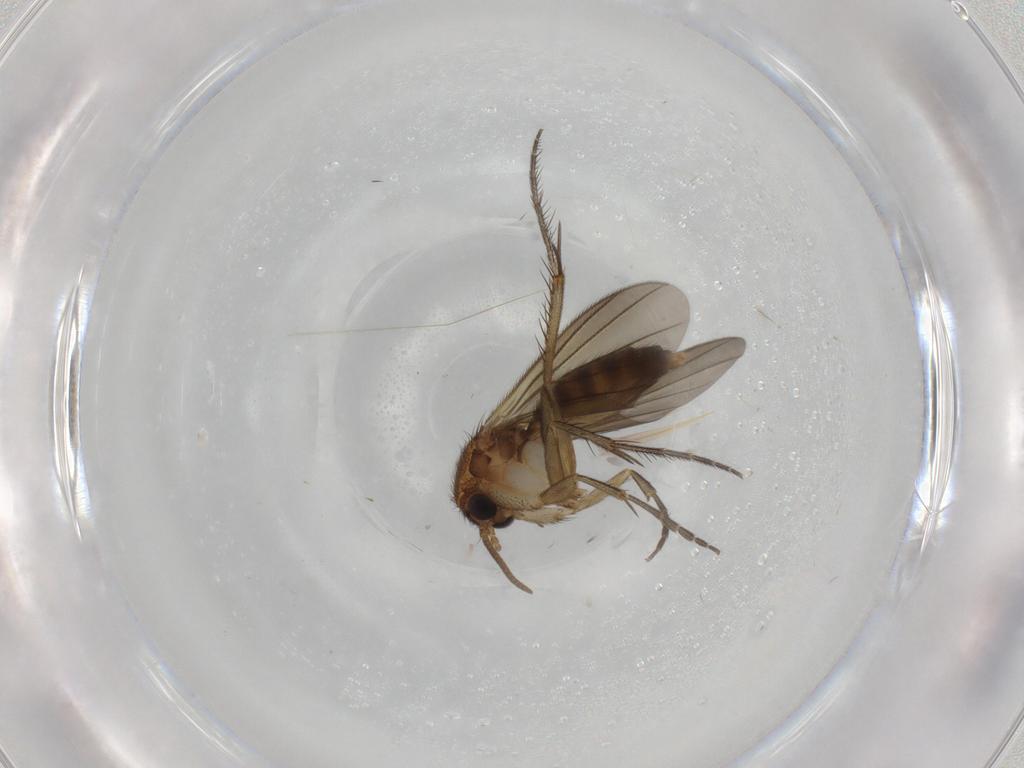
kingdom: Animalia
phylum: Arthropoda
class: Insecta
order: Diptera
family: Mycetophilidae
